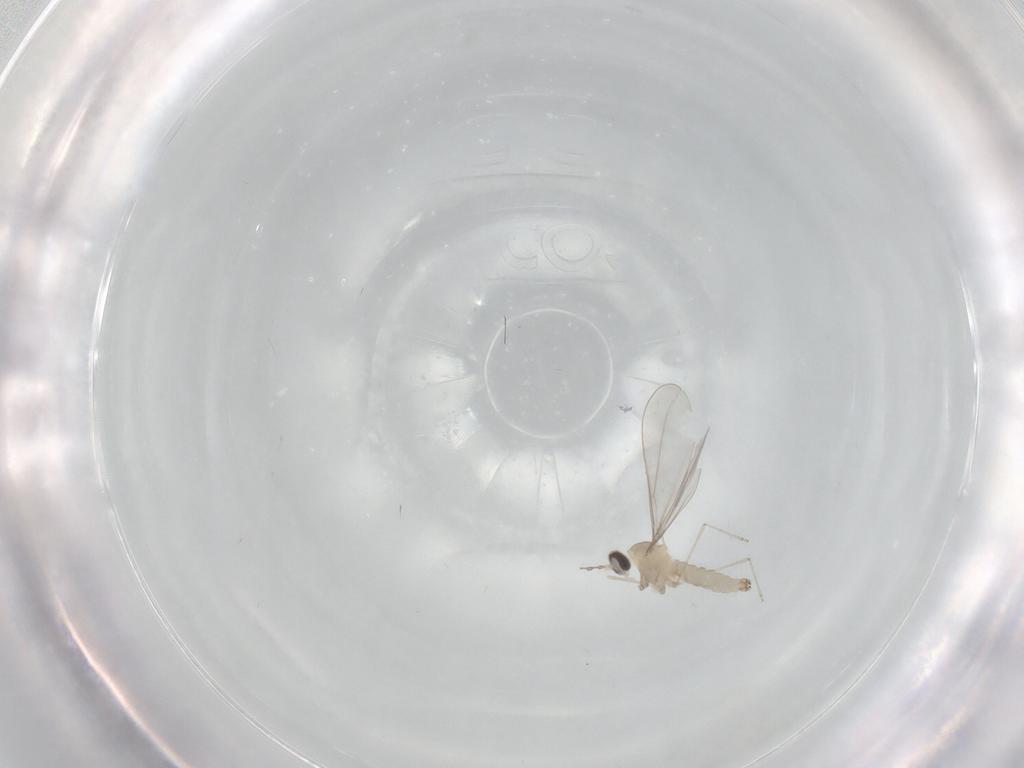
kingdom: Animalia
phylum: Arthropoda
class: Insecta
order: Diptera
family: Cecidomyiidae
